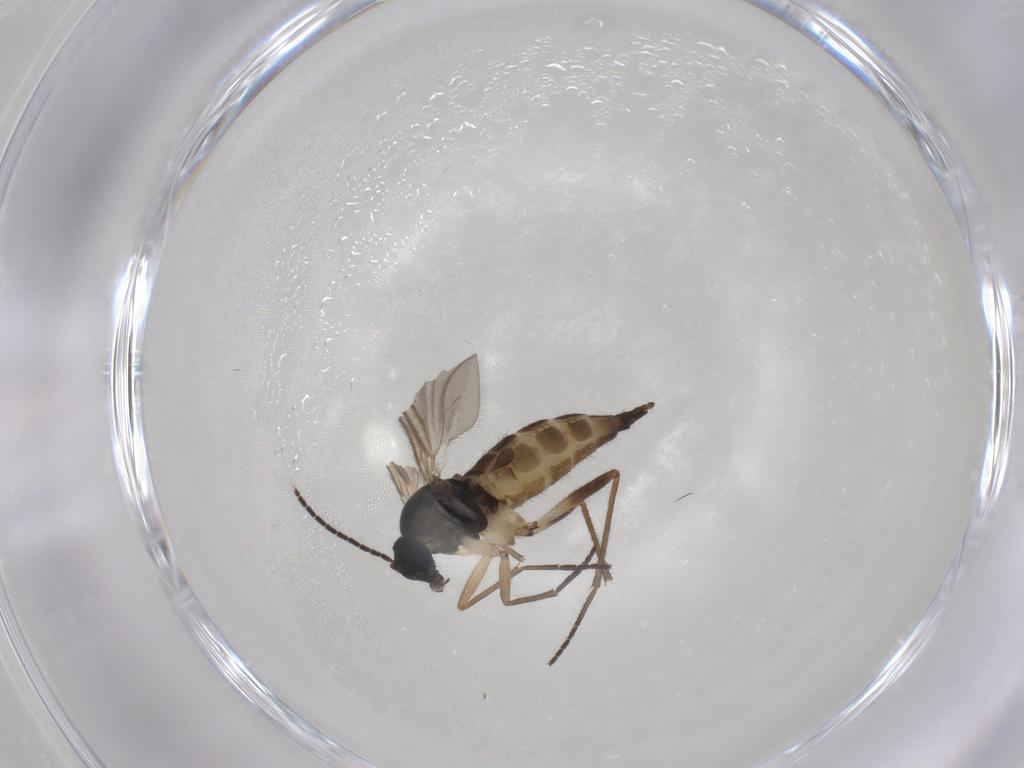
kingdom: Animalia
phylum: Arthropoda
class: Insecta
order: Diptera
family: Sciaridae
